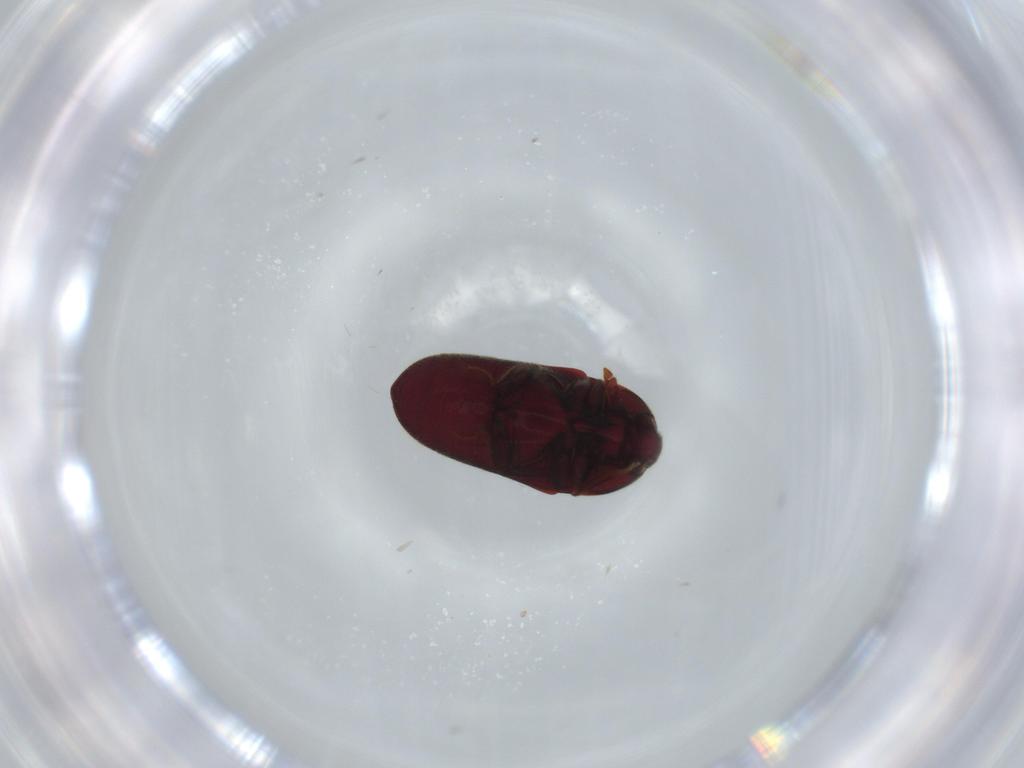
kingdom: Animalia
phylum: Arthropoda
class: Insecta
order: Coleoptera
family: Throscidae
